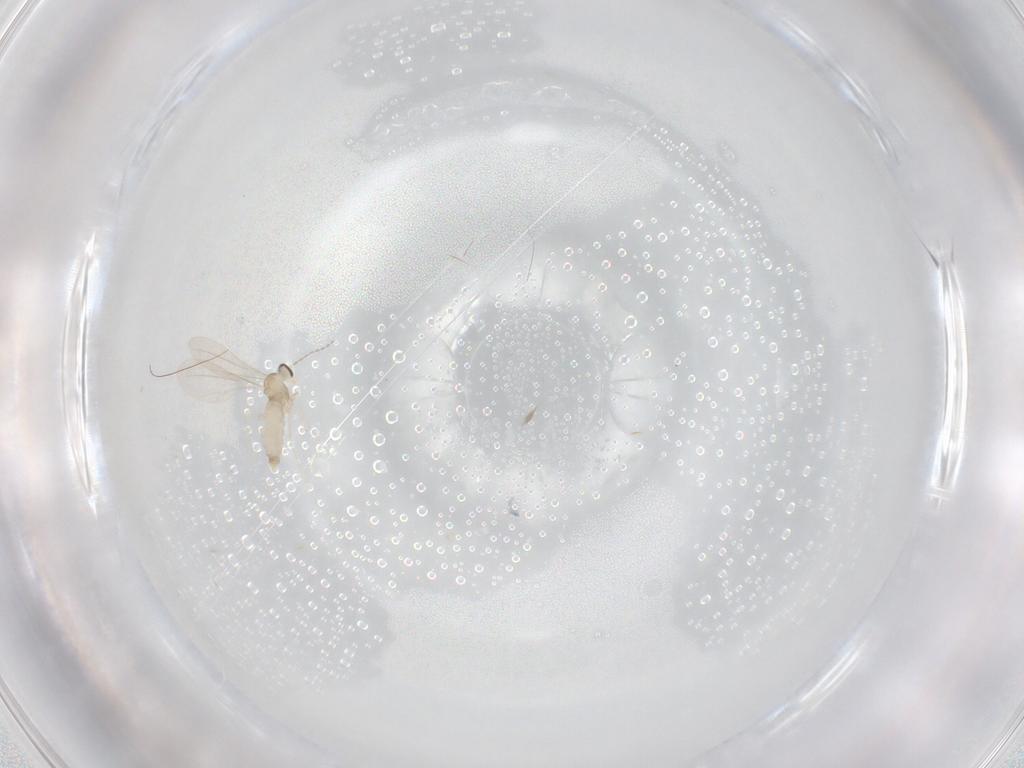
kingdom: Animalia
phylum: Arthropoda
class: Insecta
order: Diptera
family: Cecidomyiidae
